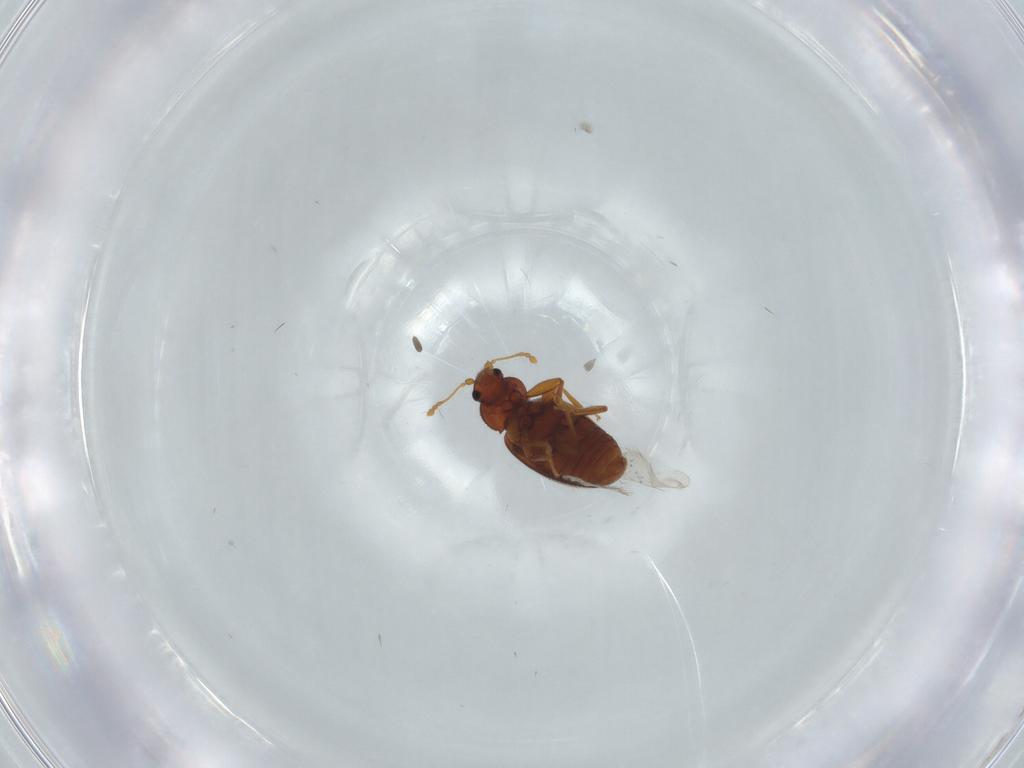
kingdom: Animalia
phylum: Arthropoda
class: Insecta
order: Coleoptera
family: Latridiidae
